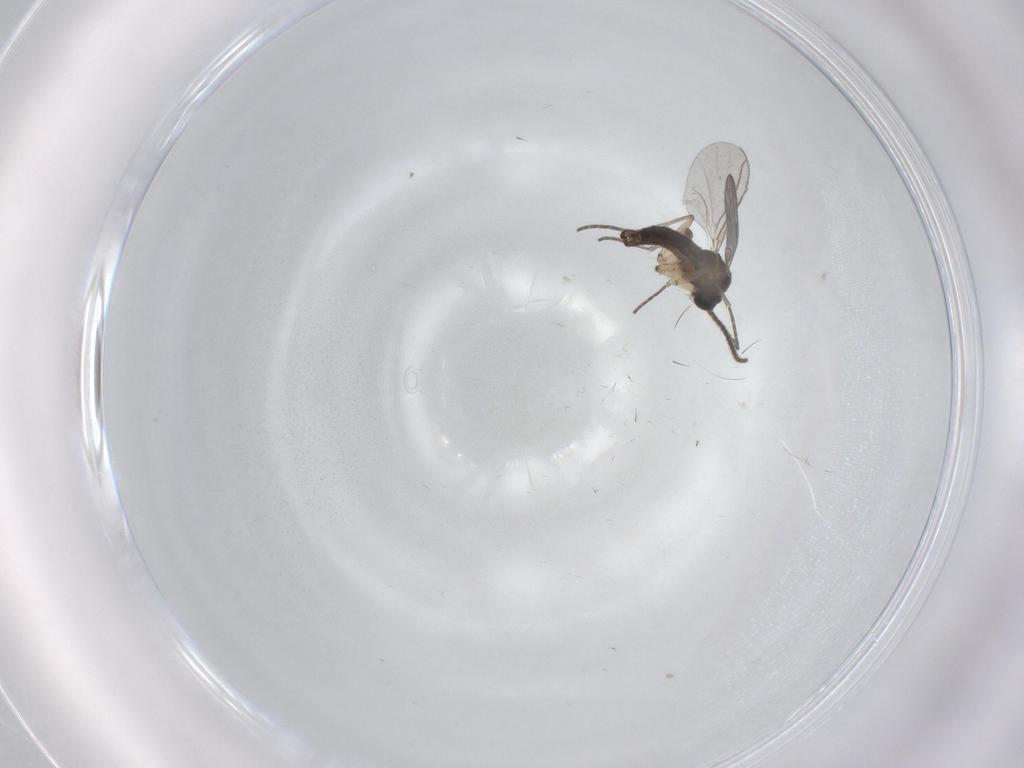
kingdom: Animalia
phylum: Arthropoda
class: Insecta
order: Diptera
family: Sciaridae
